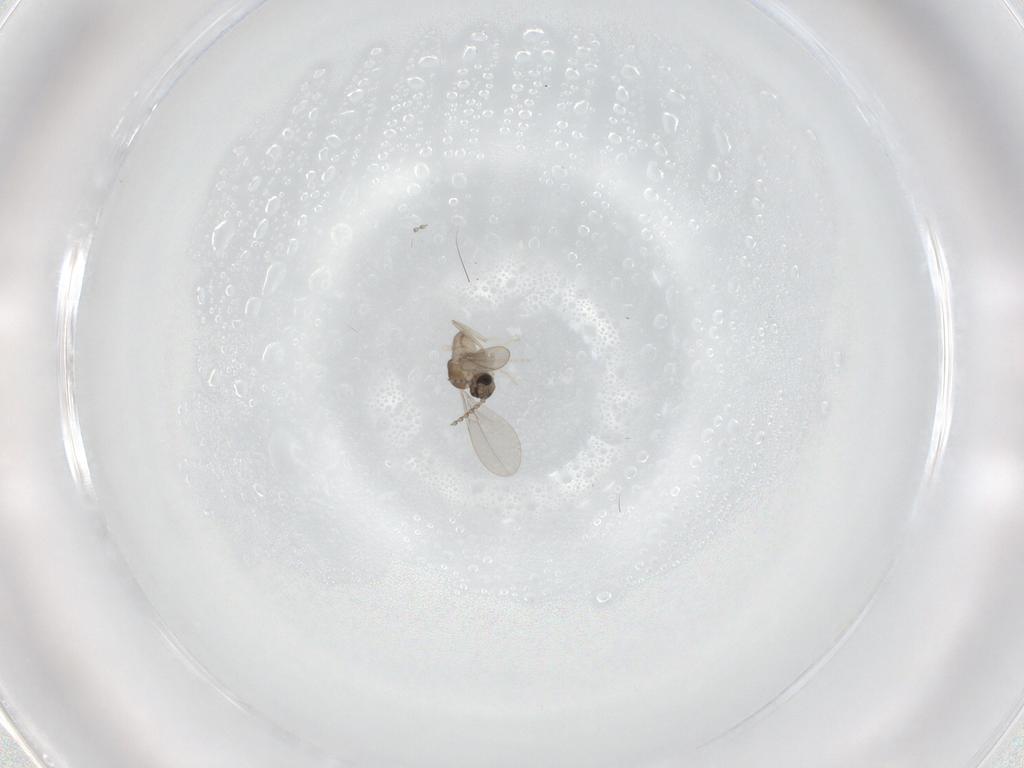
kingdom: Animalia
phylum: Arthropoda
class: Insecta
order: Diptera
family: Cecidomyiidae
